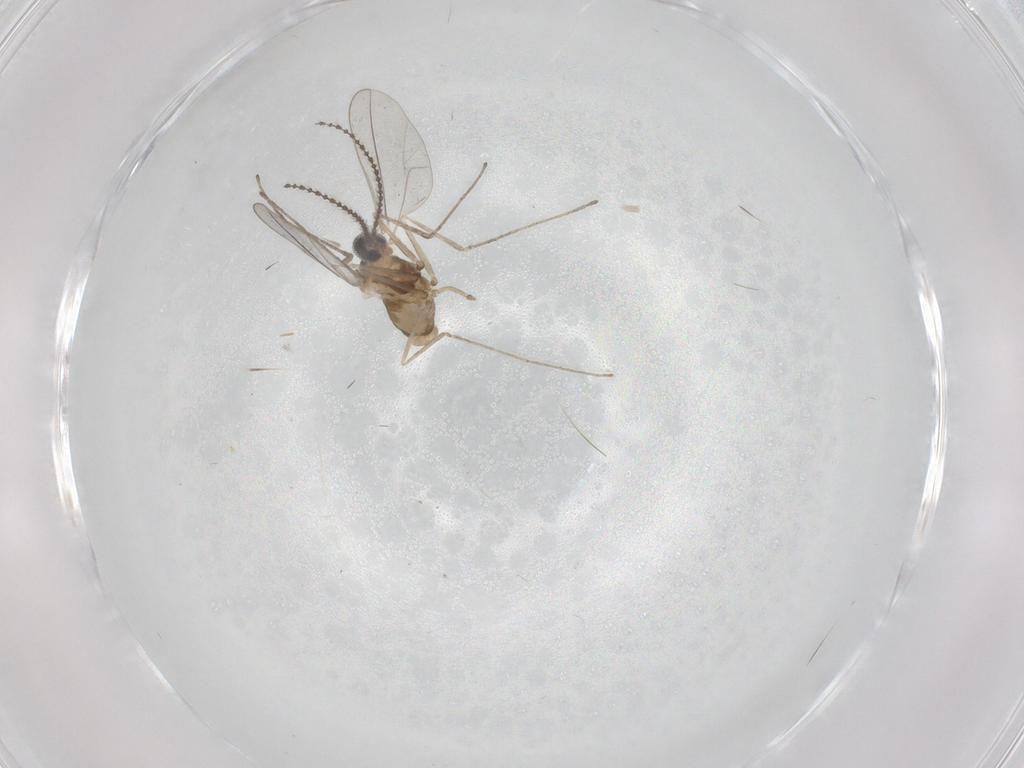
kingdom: Animalia
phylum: Arthropoda
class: Insecta
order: Diptera
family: Cecidomyiidae
